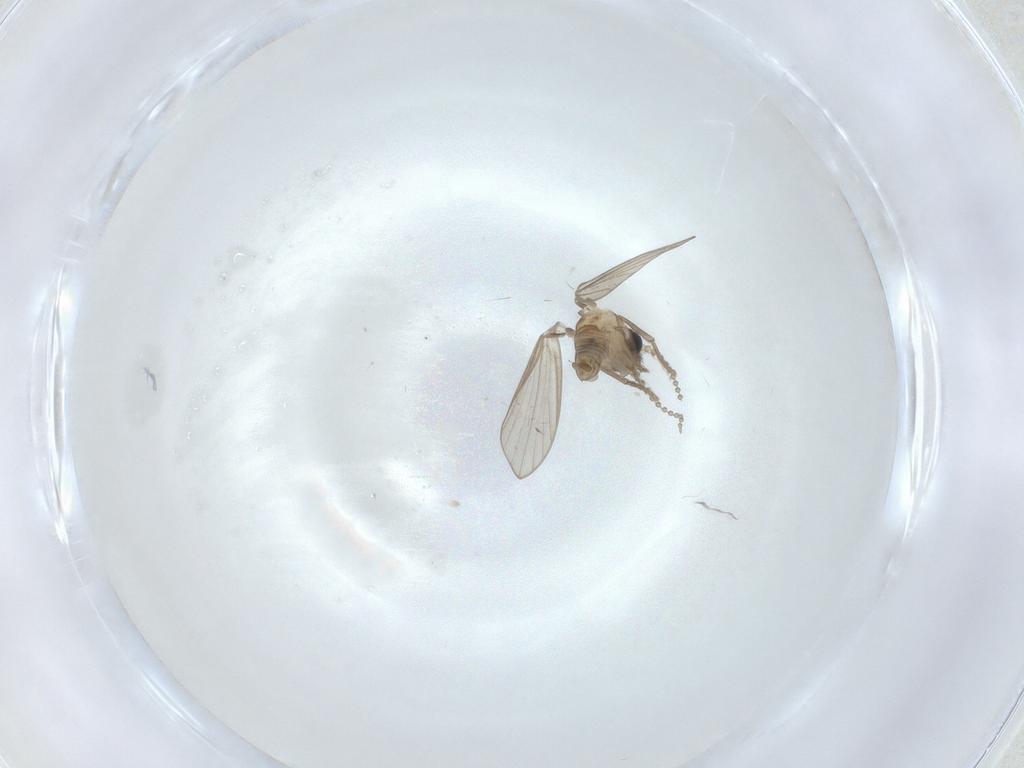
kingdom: Animalia
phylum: Arthropoda
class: Insecta
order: Diptera
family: Psychodidae
